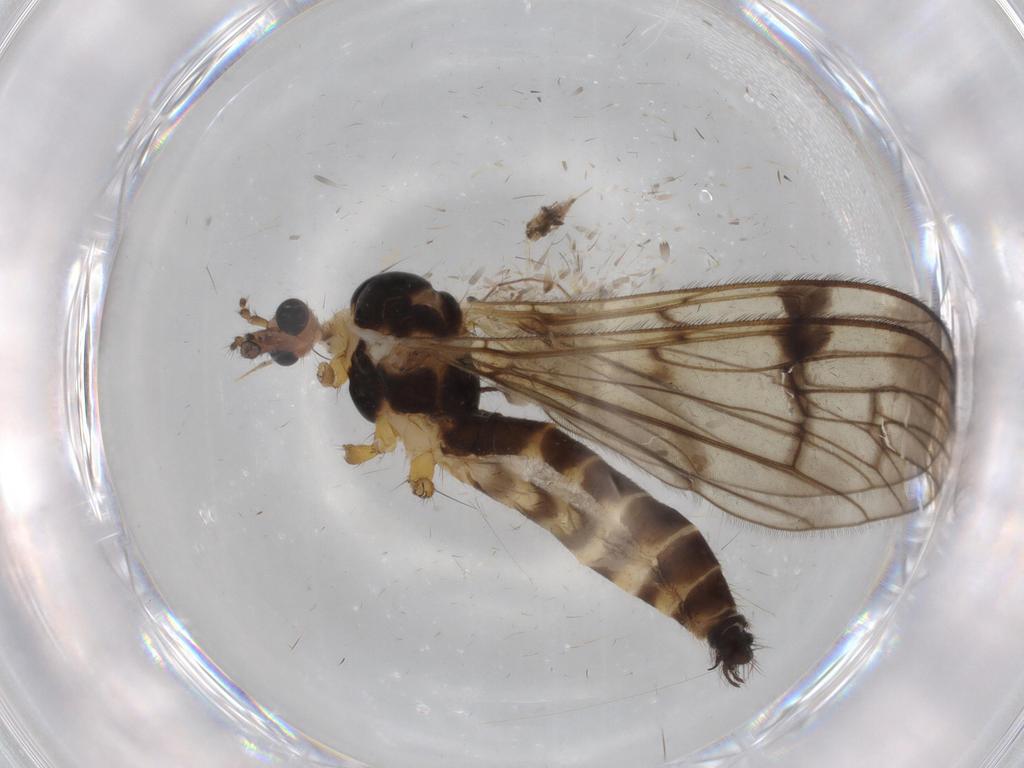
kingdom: Animalia
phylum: Arthropoda
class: Insecta
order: Diptera
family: Limoniidae
